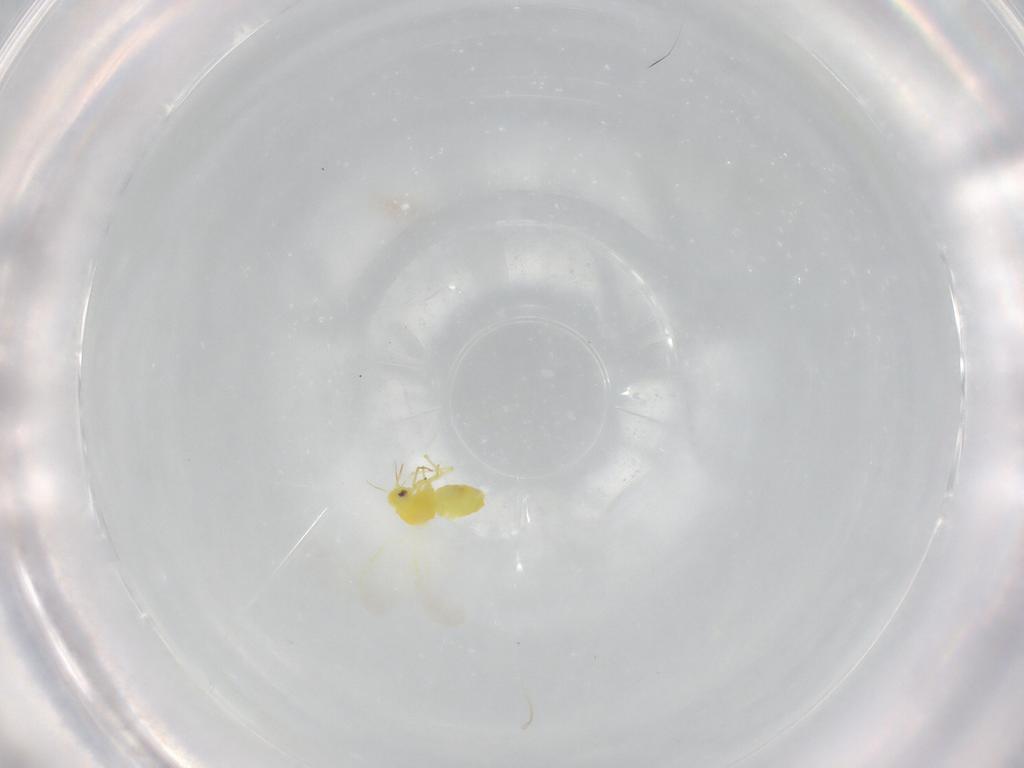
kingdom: Animalia
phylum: Arthropoda
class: Insecta
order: Hemiptera
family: Aleyrodidae
